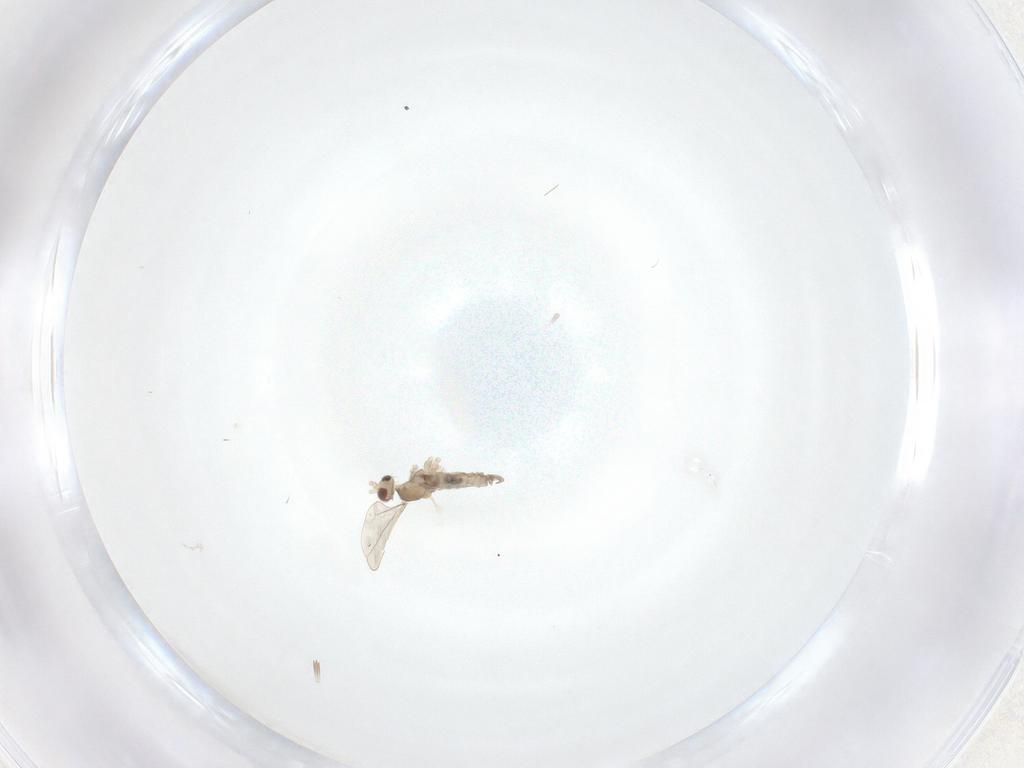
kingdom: Animalia
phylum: Arthropoda
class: Insecta
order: Diptera
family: Cecidomyiidae
